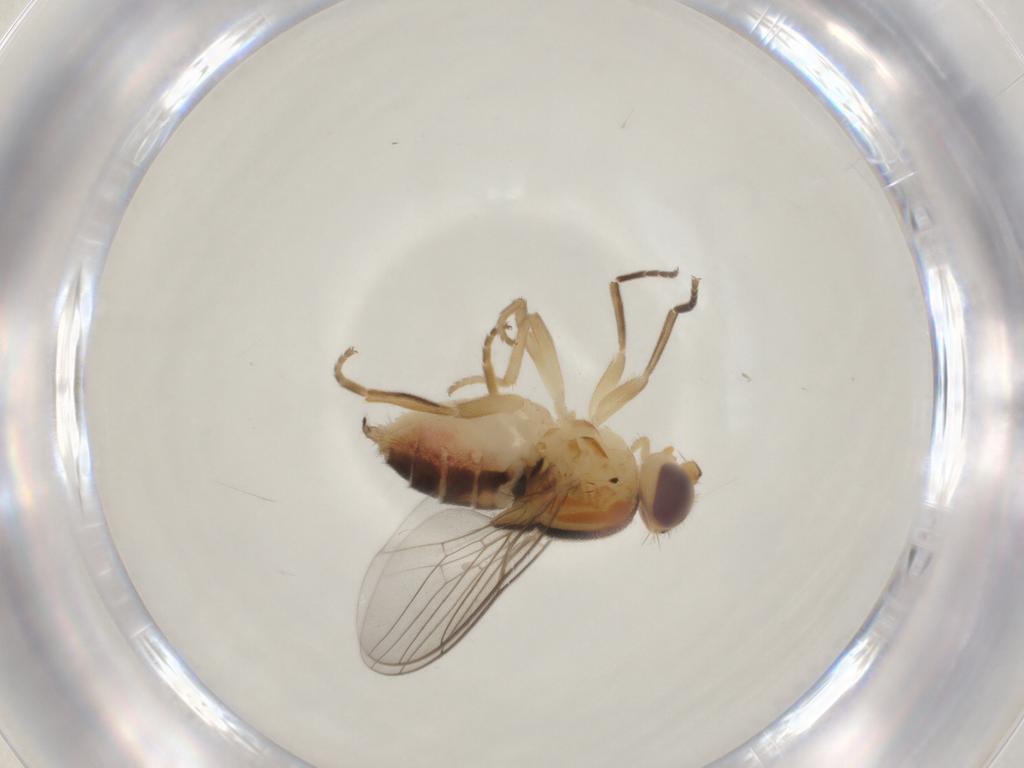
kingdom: Animalia
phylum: Arthropoda
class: Insecta
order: Diptera
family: Chloropidae
